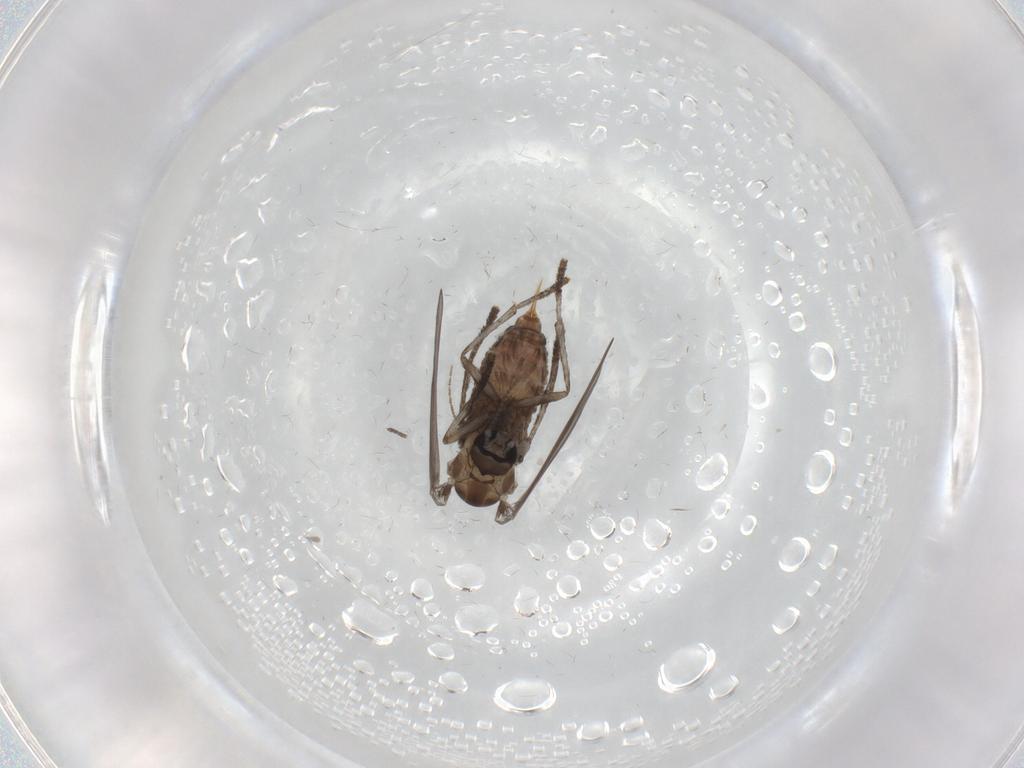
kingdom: Animalia
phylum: Arthropoda
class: Insecta
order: Diptera
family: Psychodidae
